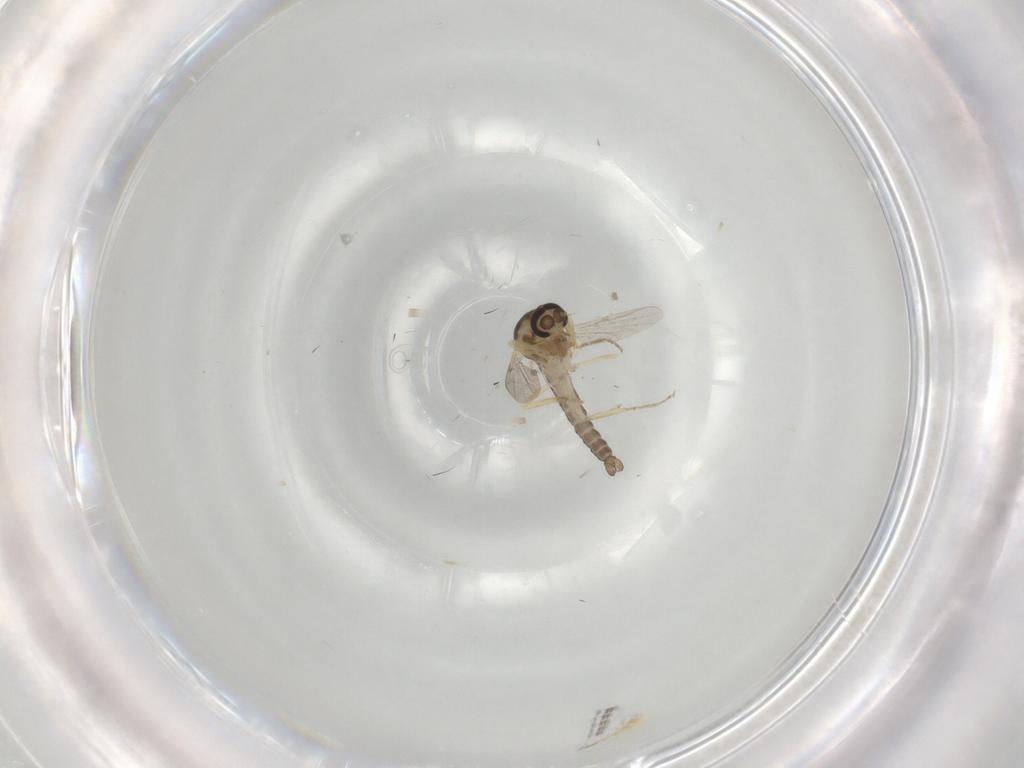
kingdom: Animalia
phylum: Arthropoda
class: Insecta
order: Diptera
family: Ceratopogonidae
